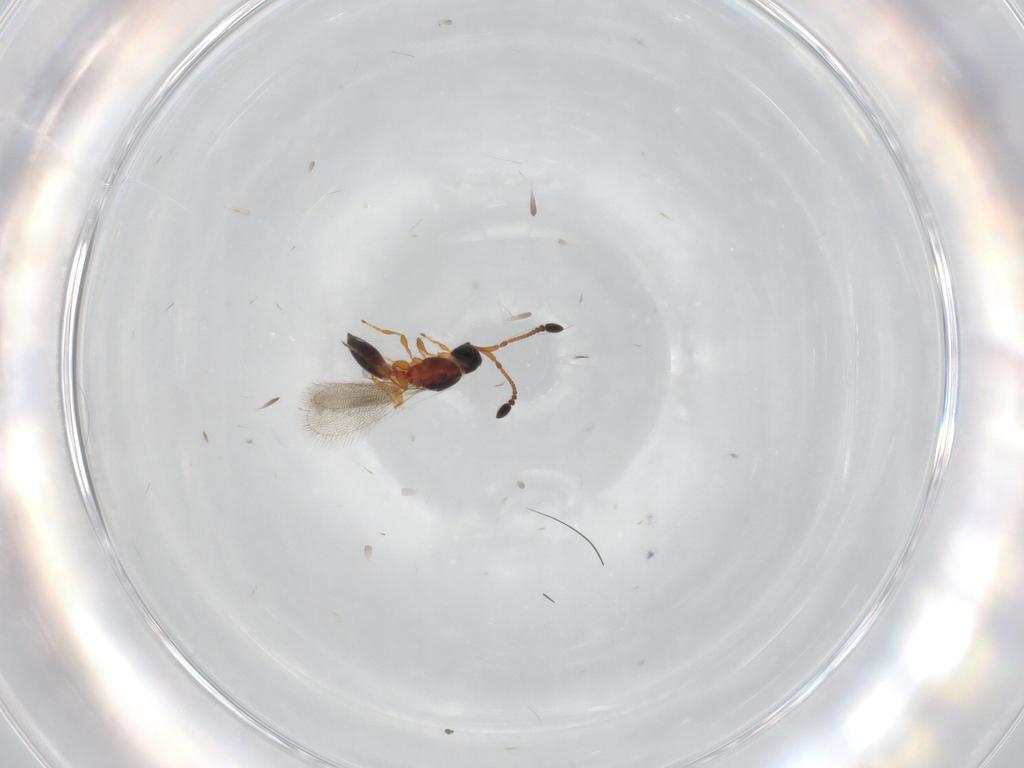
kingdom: Animalia
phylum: Arthropoda
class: Insecta
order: Hymenoptera
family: Diapriidae
